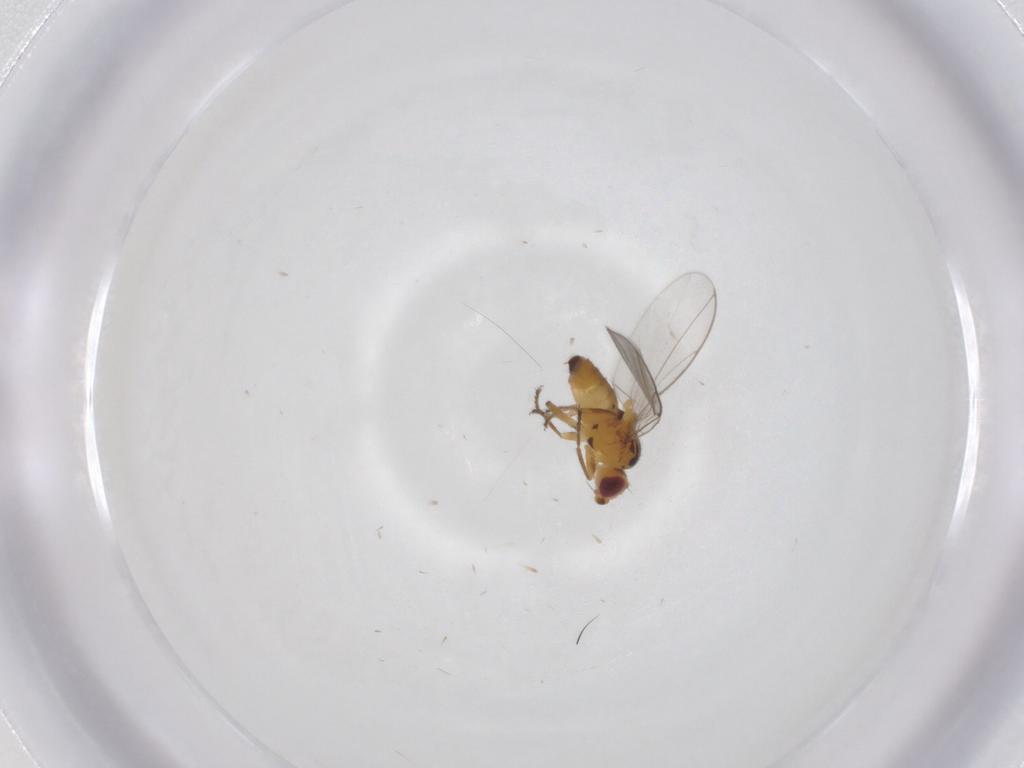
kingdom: Animalia
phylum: Arthropoda
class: Insecta
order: Diptera
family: Chloropidae
